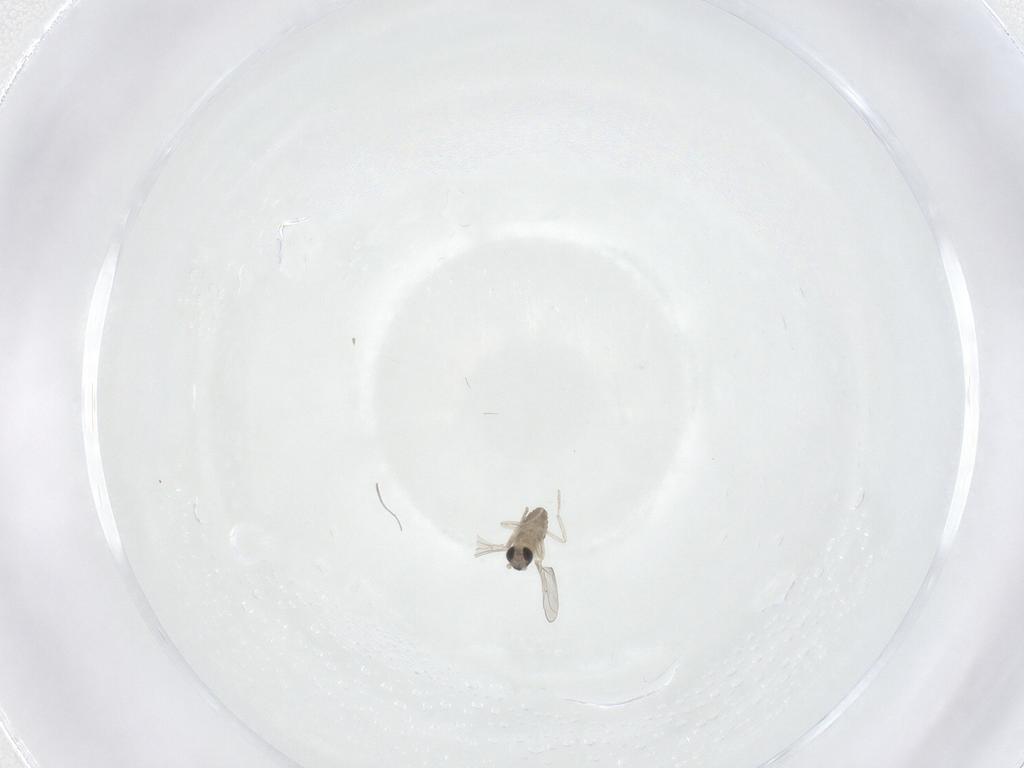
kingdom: Animalia
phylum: Arthropoda
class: Insecta
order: Diptera
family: Cecidomyiidae
